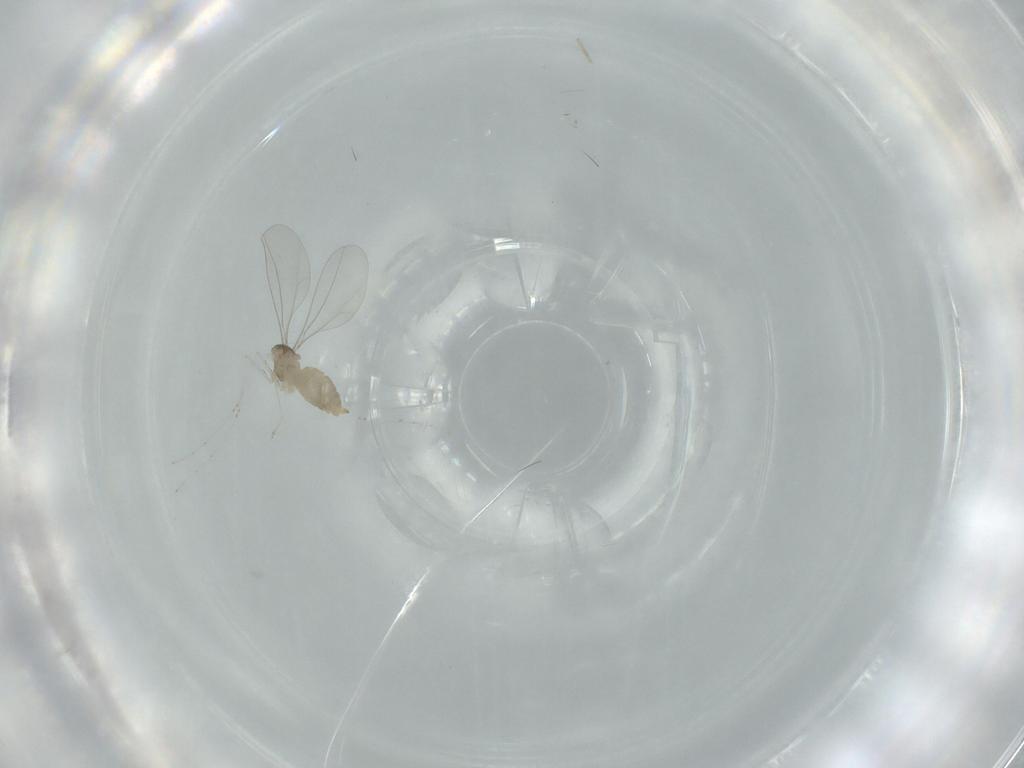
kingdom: Animalia
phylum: Arthropoda
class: Insecta
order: Diptera
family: Cecidomyiidae
